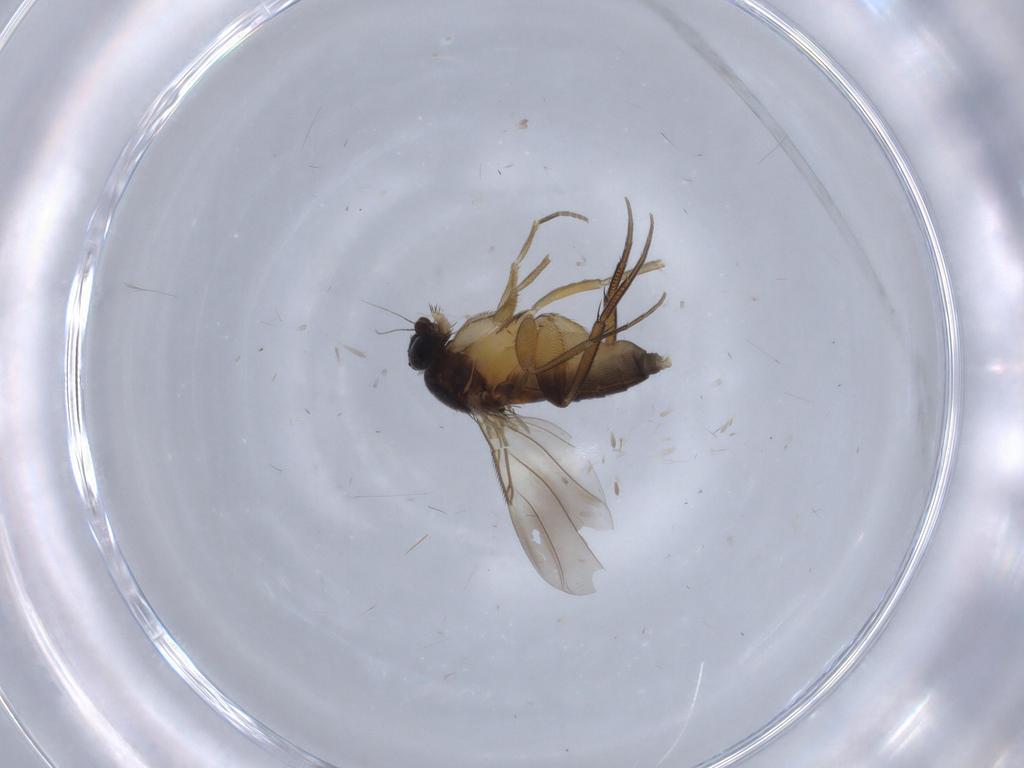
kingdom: Animalia
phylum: Arthropoda
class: Insecta
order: Diptera
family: Phoridae
